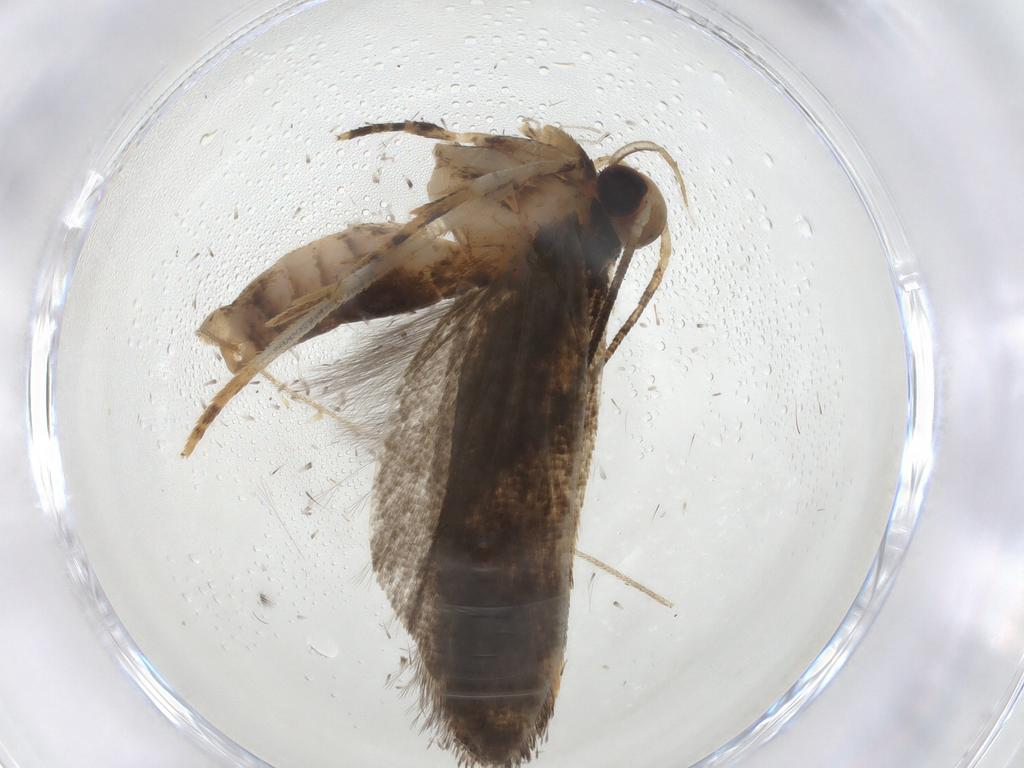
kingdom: Animalia
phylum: Arthropoda
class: Insecta
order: Lepidoptera
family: Gelechiidae
